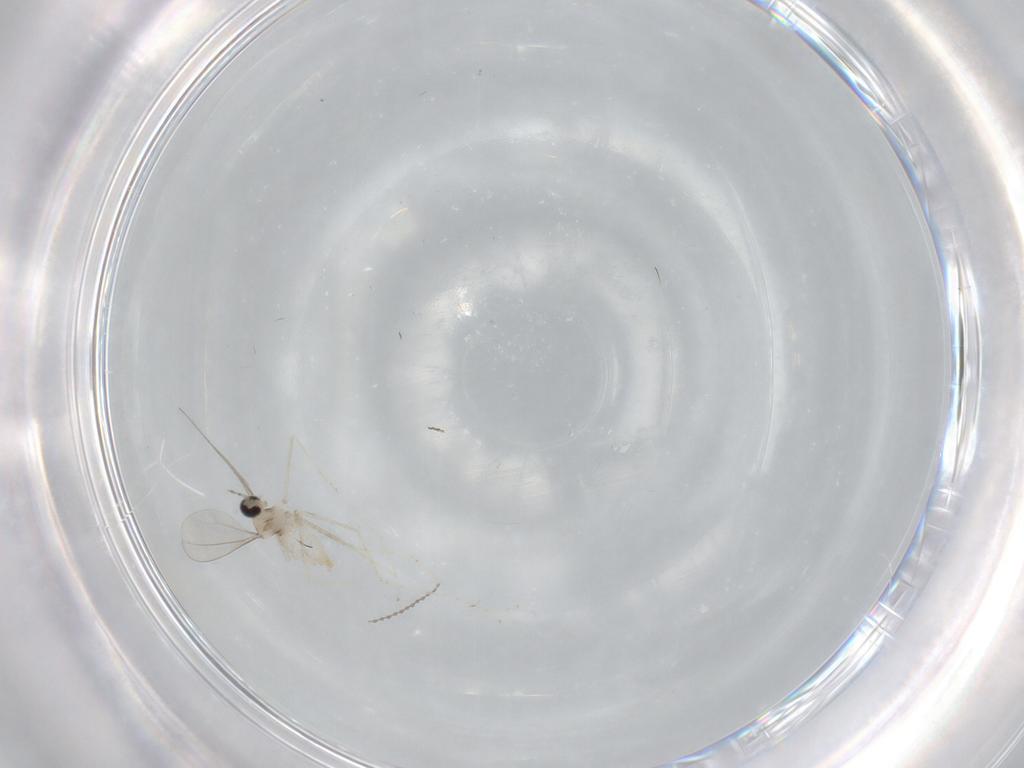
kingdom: Animalia
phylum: Arthropoda
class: Insecta
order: Diptera
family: Cecidomyiidae
